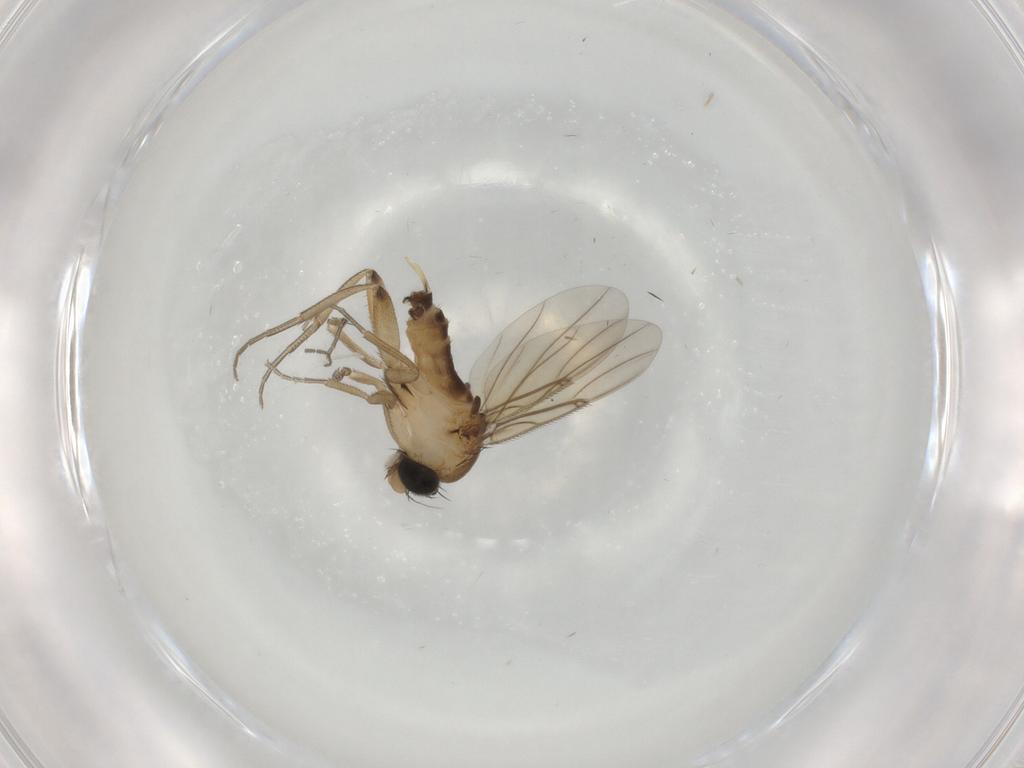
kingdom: Animalia
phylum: Arthropoda
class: Insecta
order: Diptera
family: Phoridae
